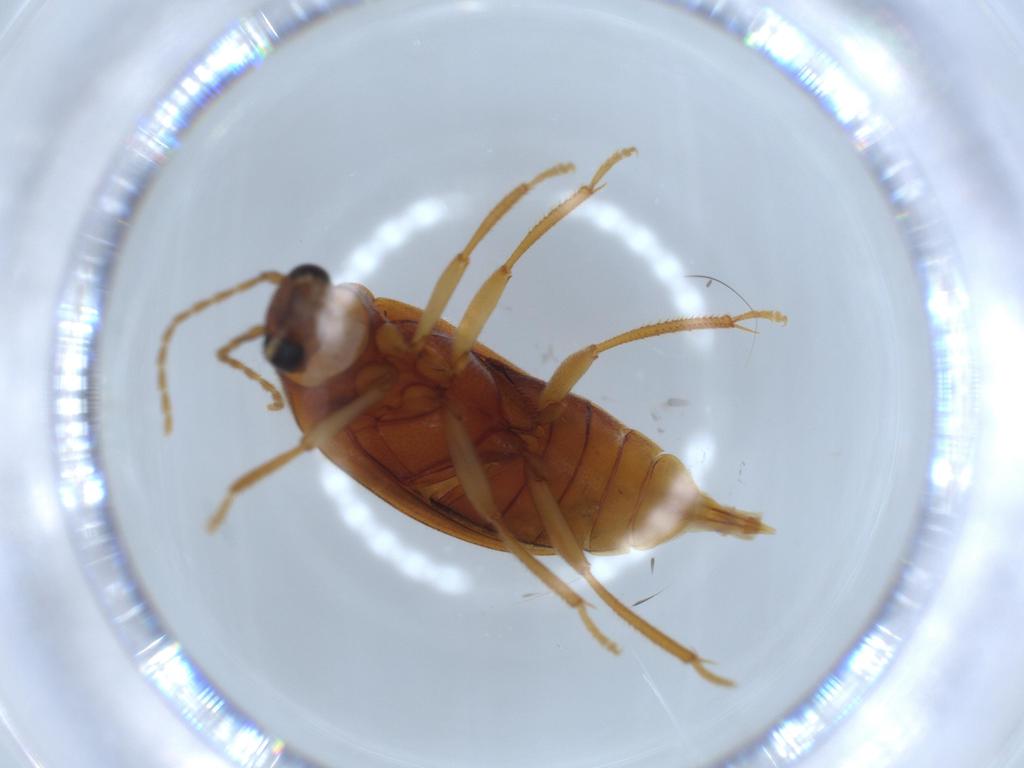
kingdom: Animalia
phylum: Arthropoda
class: Insecta
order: Coleoptera
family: Ptilodactylidae
